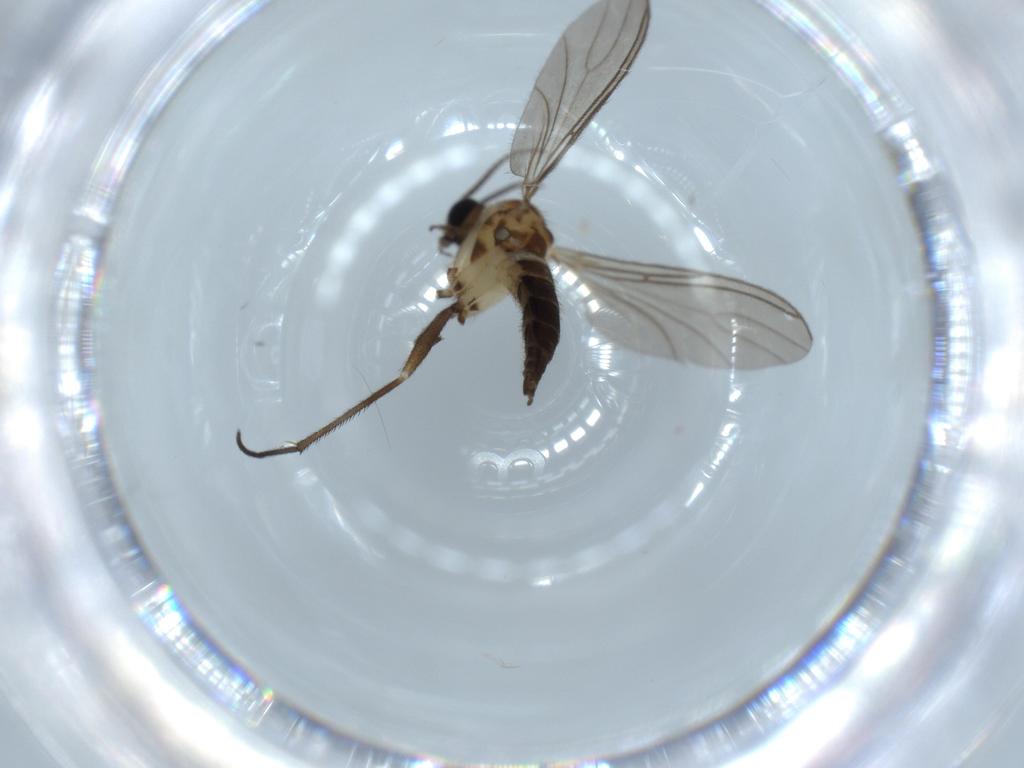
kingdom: Animalia
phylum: Arthropoda
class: Insecta
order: Diptera
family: Sciaridae
